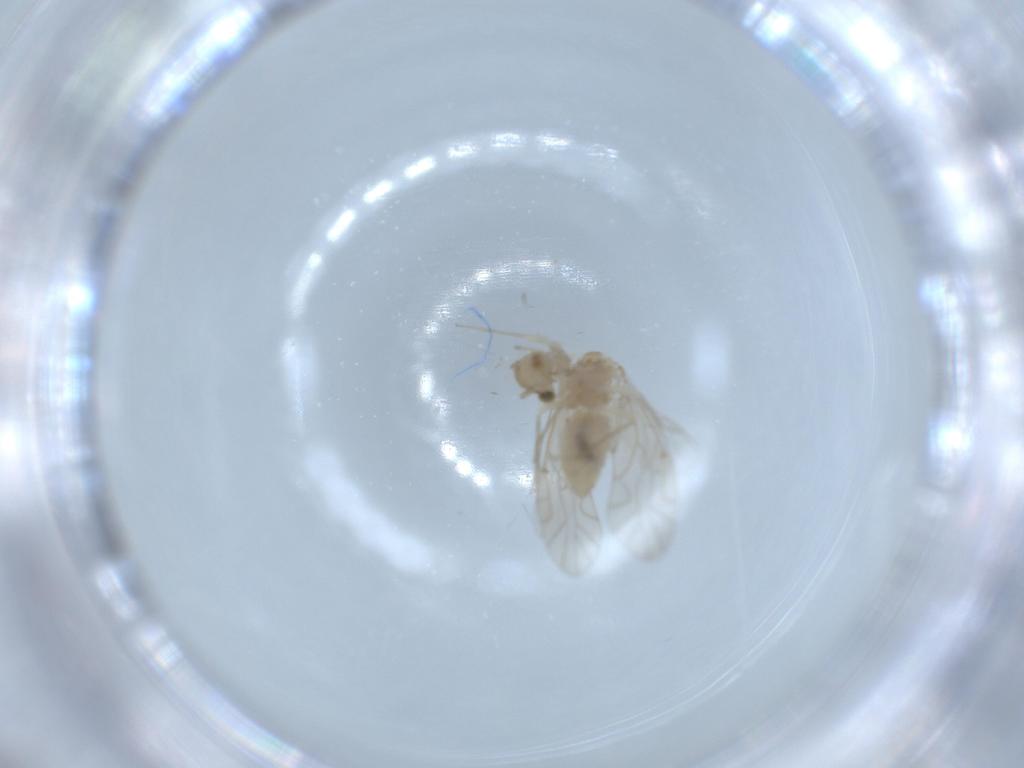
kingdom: Animalia
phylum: Arthropoda
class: Insecta
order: Psocodea
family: Lachesillidae
